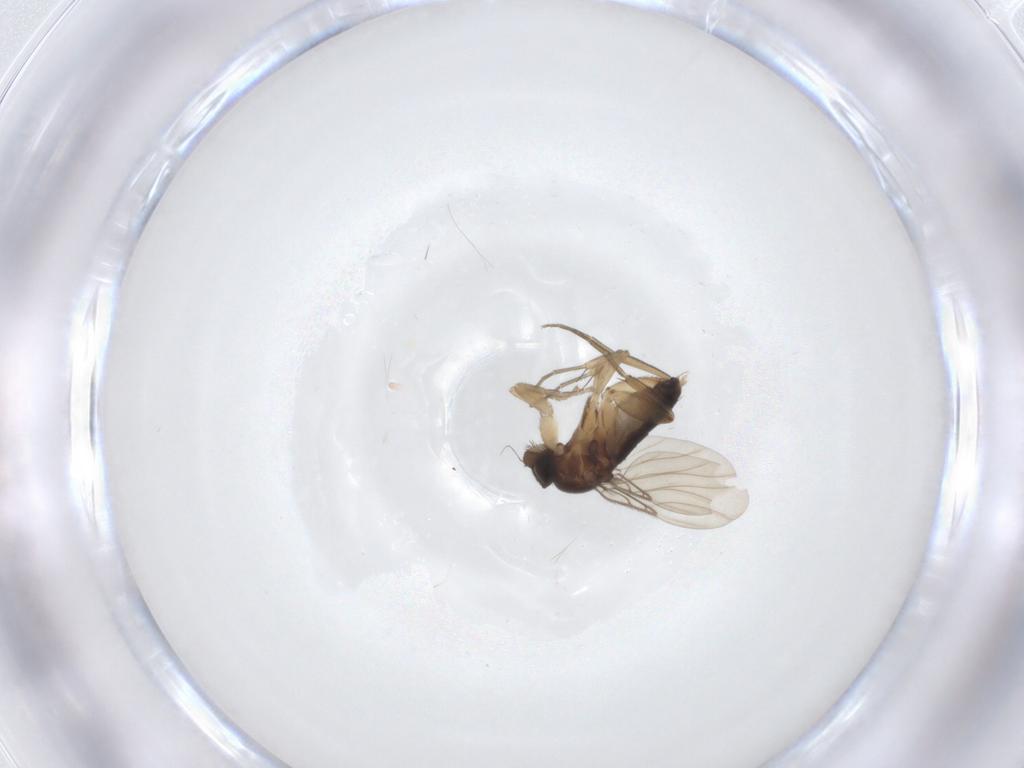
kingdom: Animalia
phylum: Arthropoda
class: Insecta
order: Diptera
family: Phoridae
